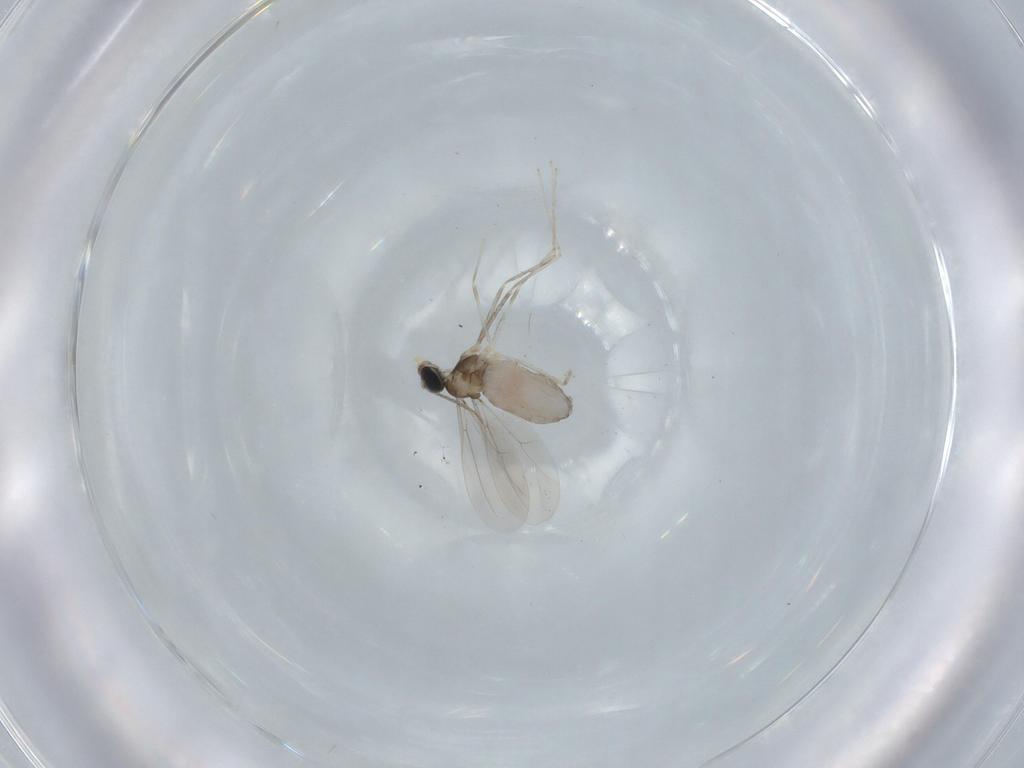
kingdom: Animalia
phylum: Arthropoda
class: Insecta
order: Diptera
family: Cecidomyiidae
